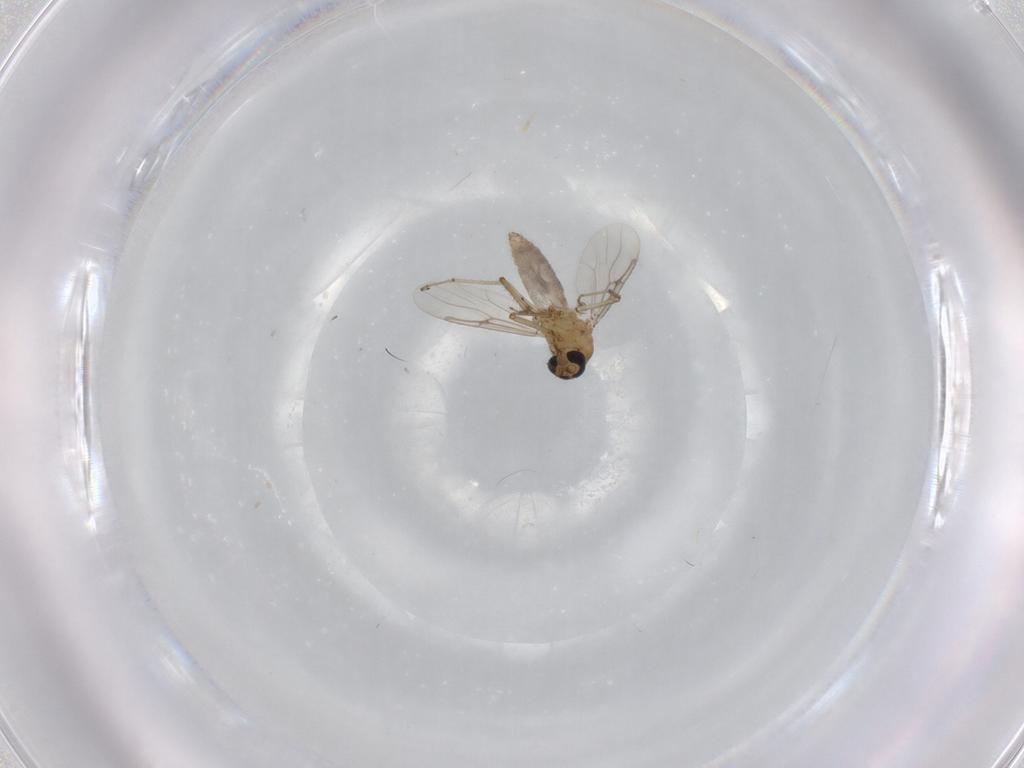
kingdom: Animalia
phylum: Arthropoda
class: Insecta
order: Diptera
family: Ceratopogonidae
